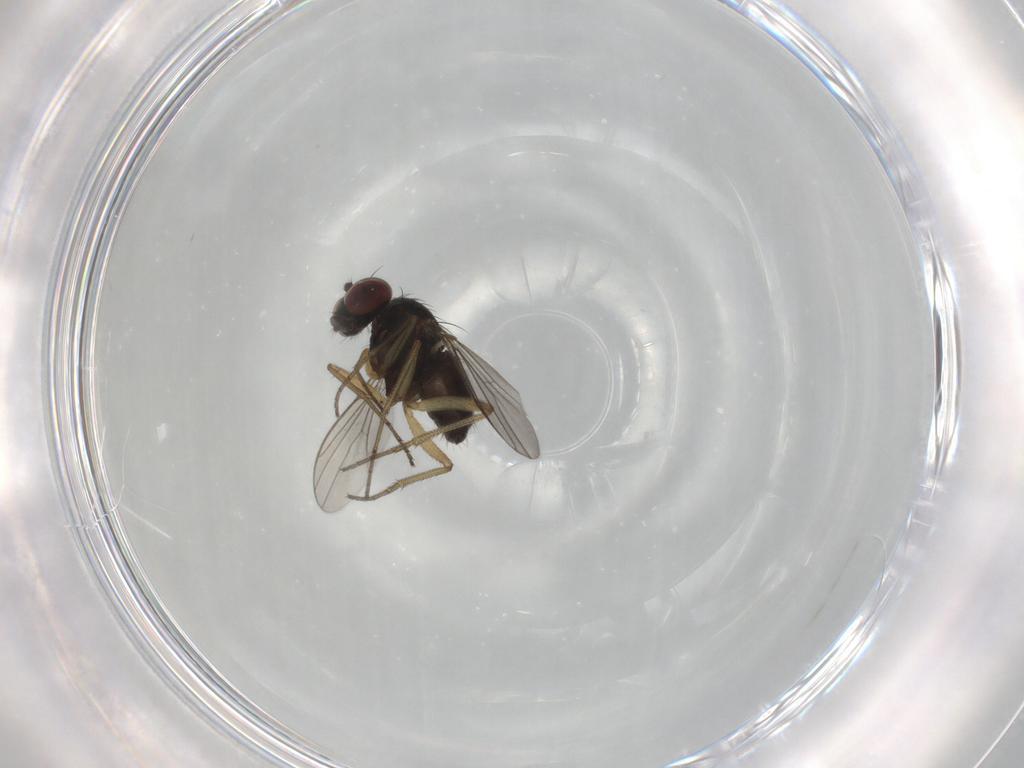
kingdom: Animalia
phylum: Arthropoda
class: Insecta
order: Diptera
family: Dolichopodidae
